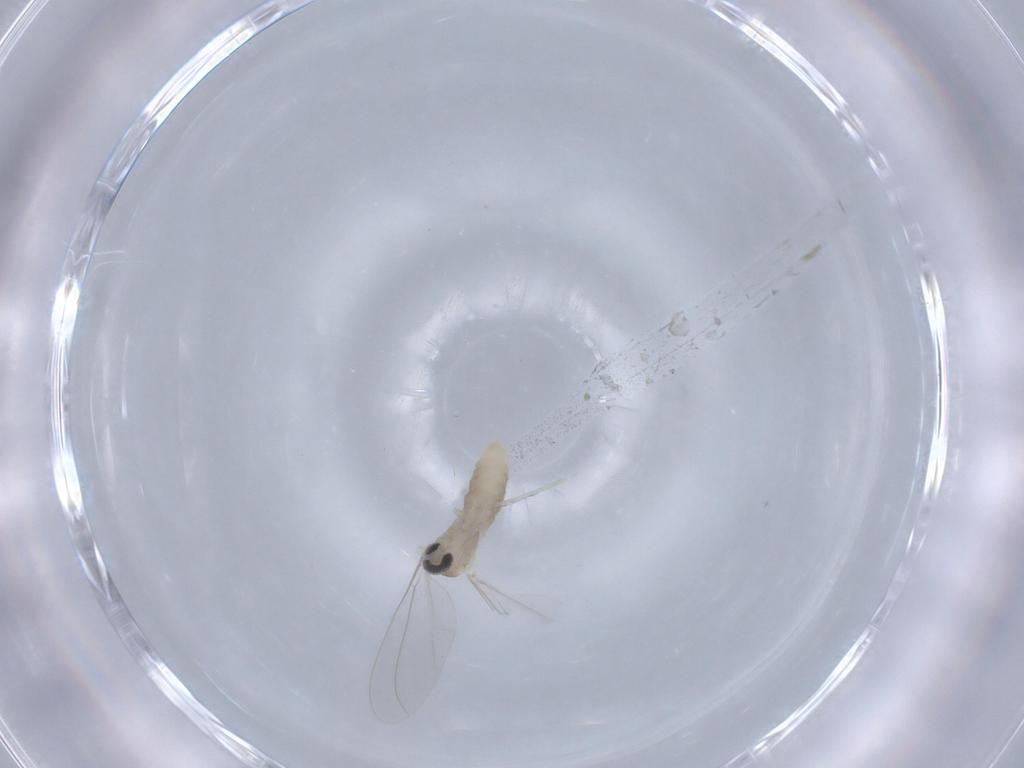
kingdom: Animalia
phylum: Arthropoda
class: Insecta
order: Diptera
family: Cecidomyiidae
